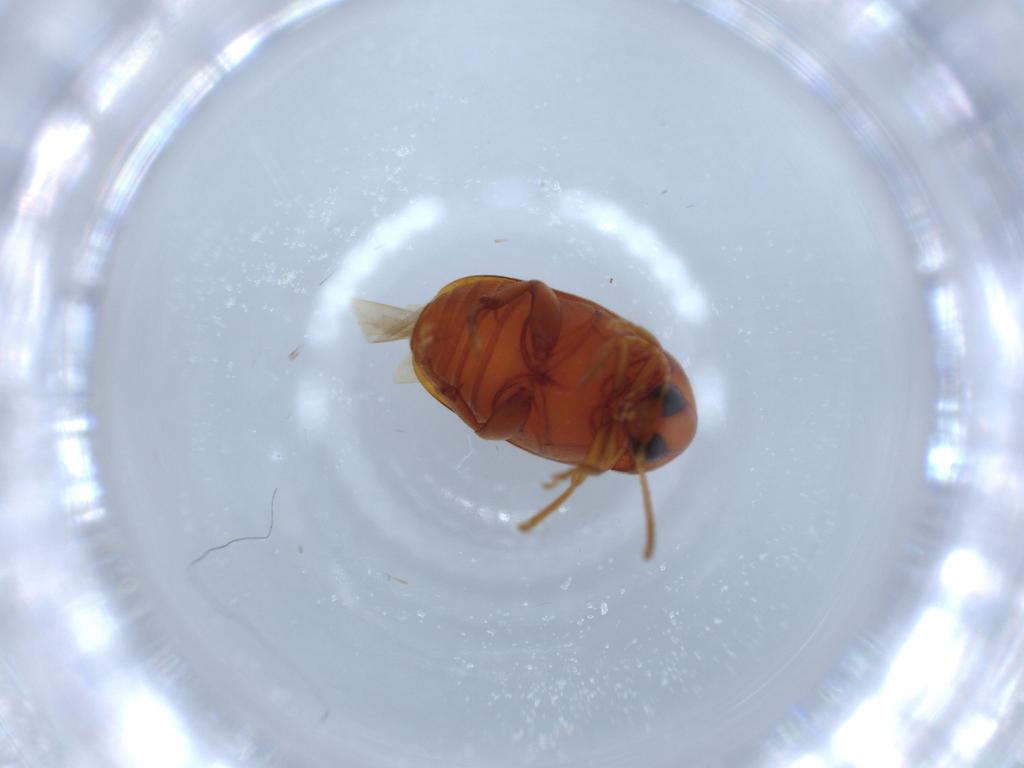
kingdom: Animalia
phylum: Arthropoda
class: Insecta
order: Coleoptera
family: Chrysomelidae
